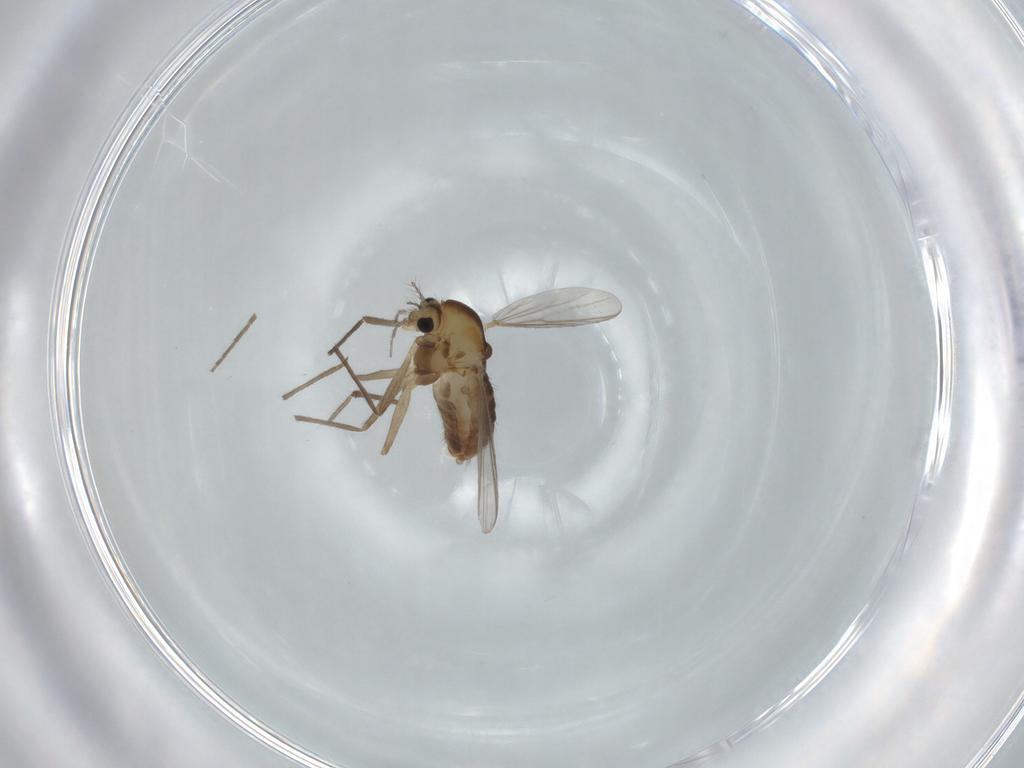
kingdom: Animalia
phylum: Arthropoda
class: Insecta
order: Diptera
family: Chironomidae
